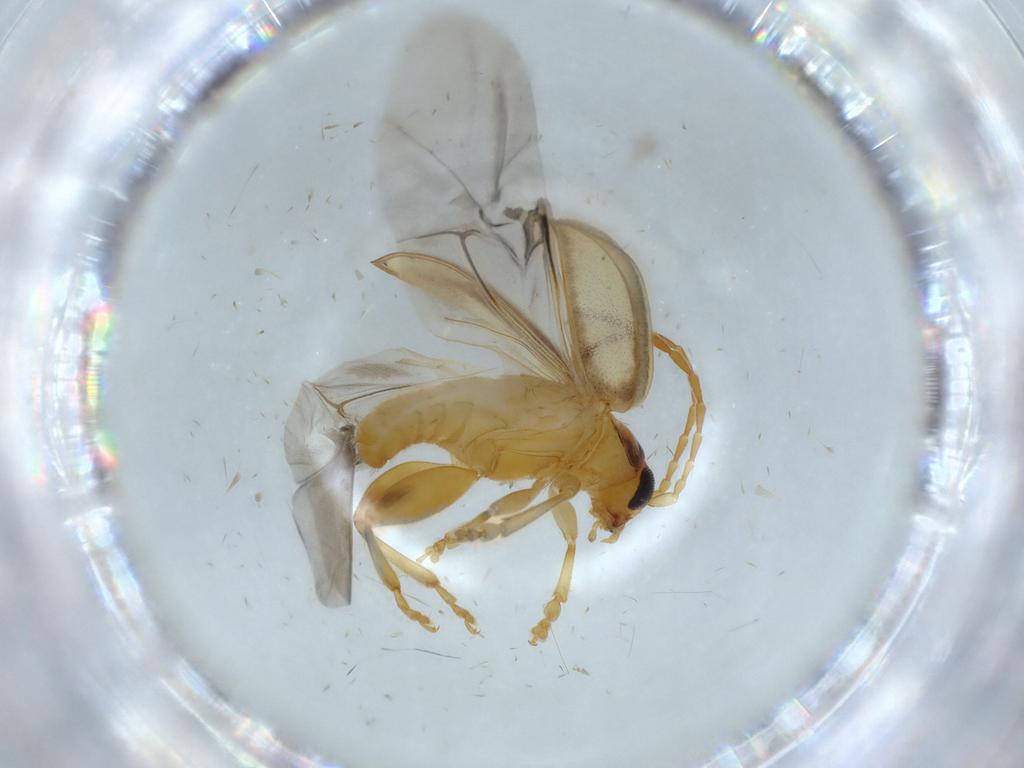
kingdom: Animalia
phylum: Arthropoda
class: Insecta
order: Coleoptera
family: Chrysomelidae
